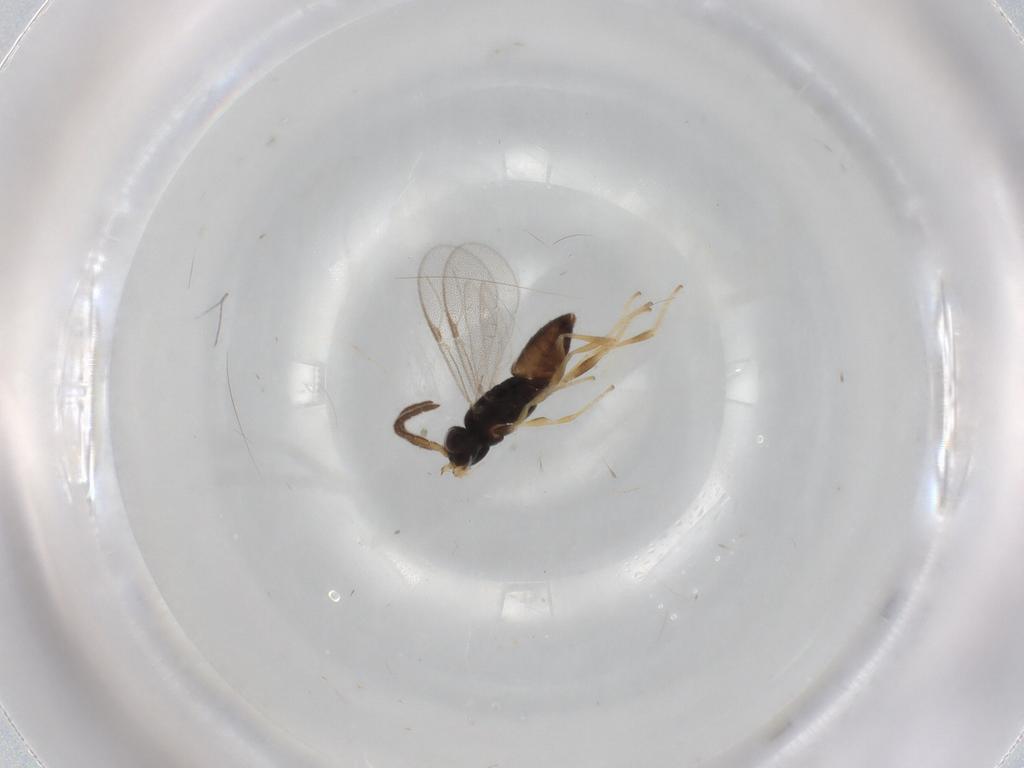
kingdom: Animalia
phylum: Arthropoda
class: Insecta
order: Hymenoptera
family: Dryinidae
